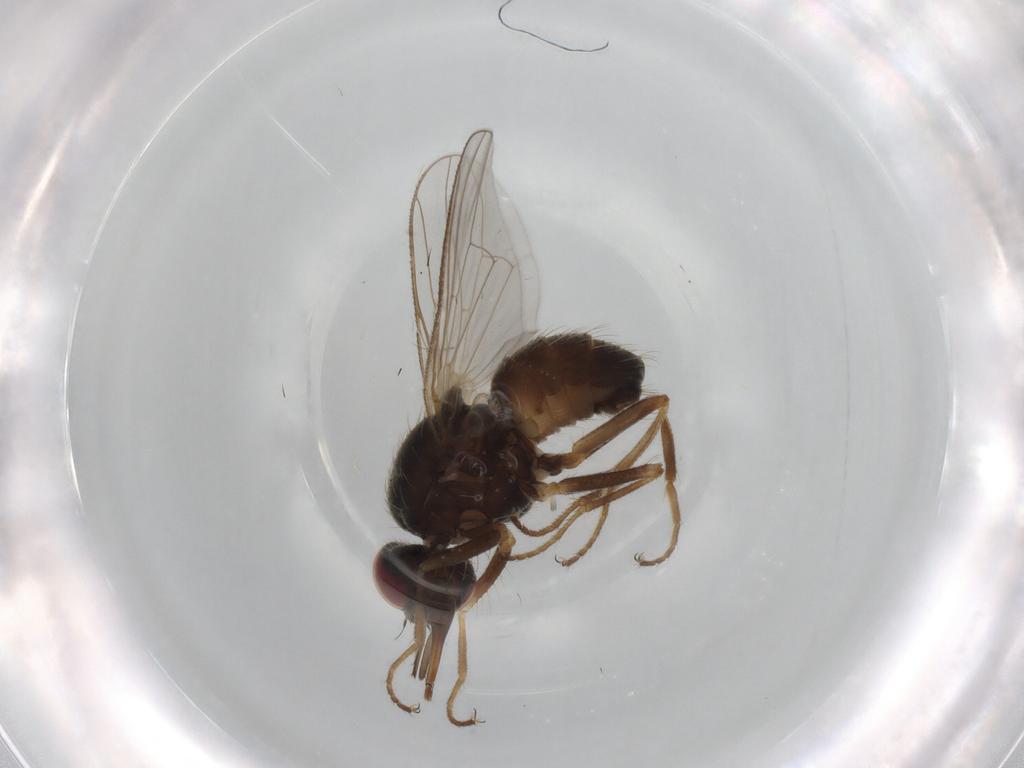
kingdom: Animalia
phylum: Arthropoda
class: Insecta
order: Diptera
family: Muscidae
